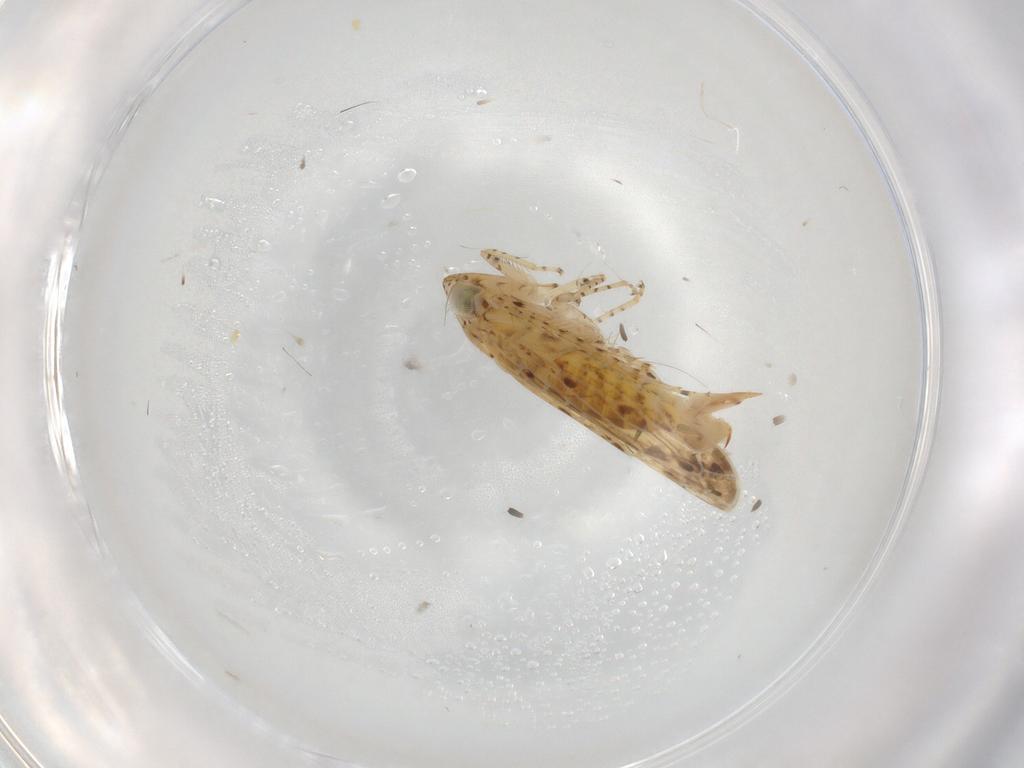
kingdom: Animalia
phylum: Arthropoda
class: Insecta
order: Hemiptera
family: Cicadellidae
